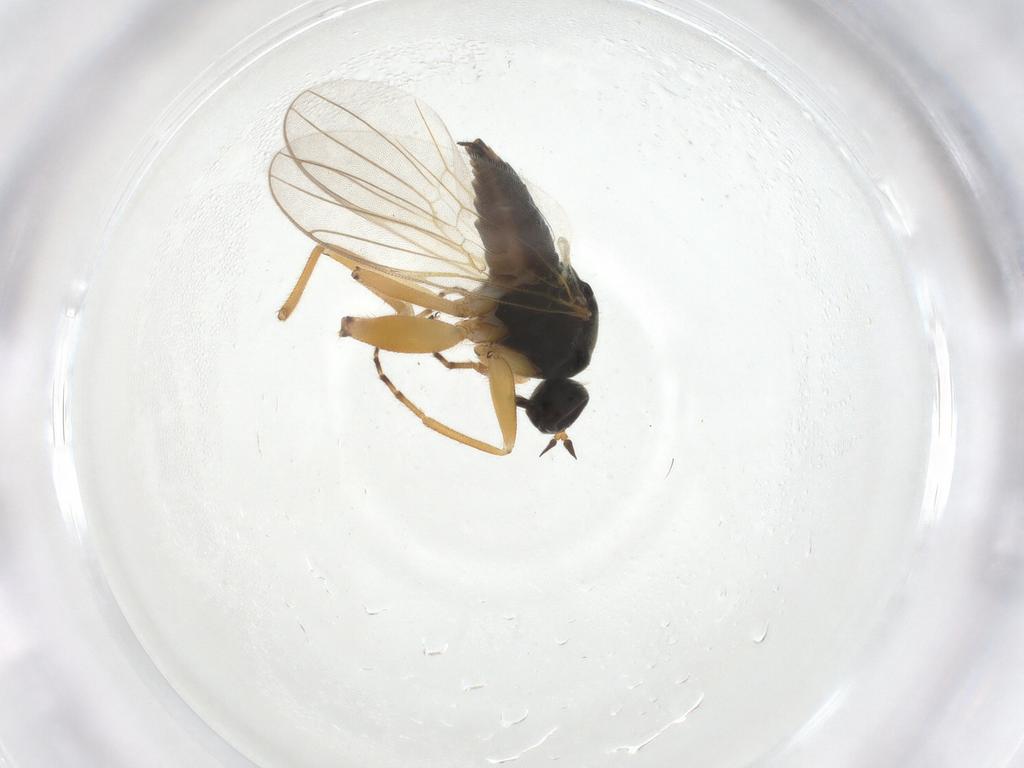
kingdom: Animalia
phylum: Arthropoda
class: Insecta
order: Diptera
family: Hybotidae
